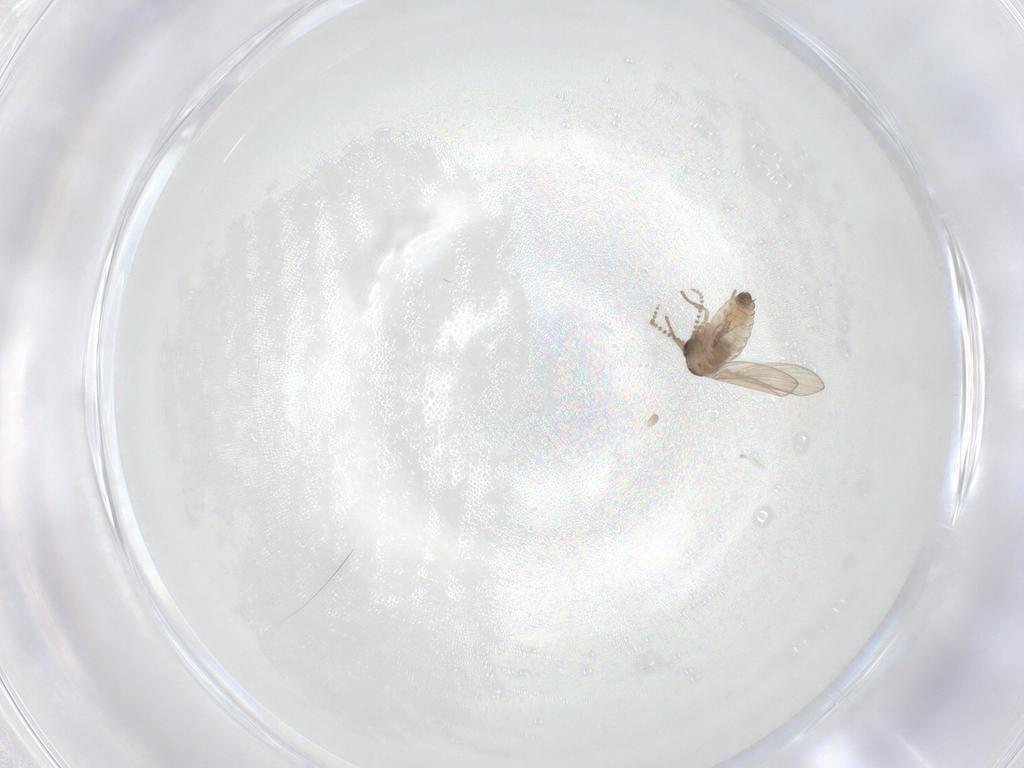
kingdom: Animalia
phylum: Arthropoda
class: Insecta
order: Diptera
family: Psychodidae
